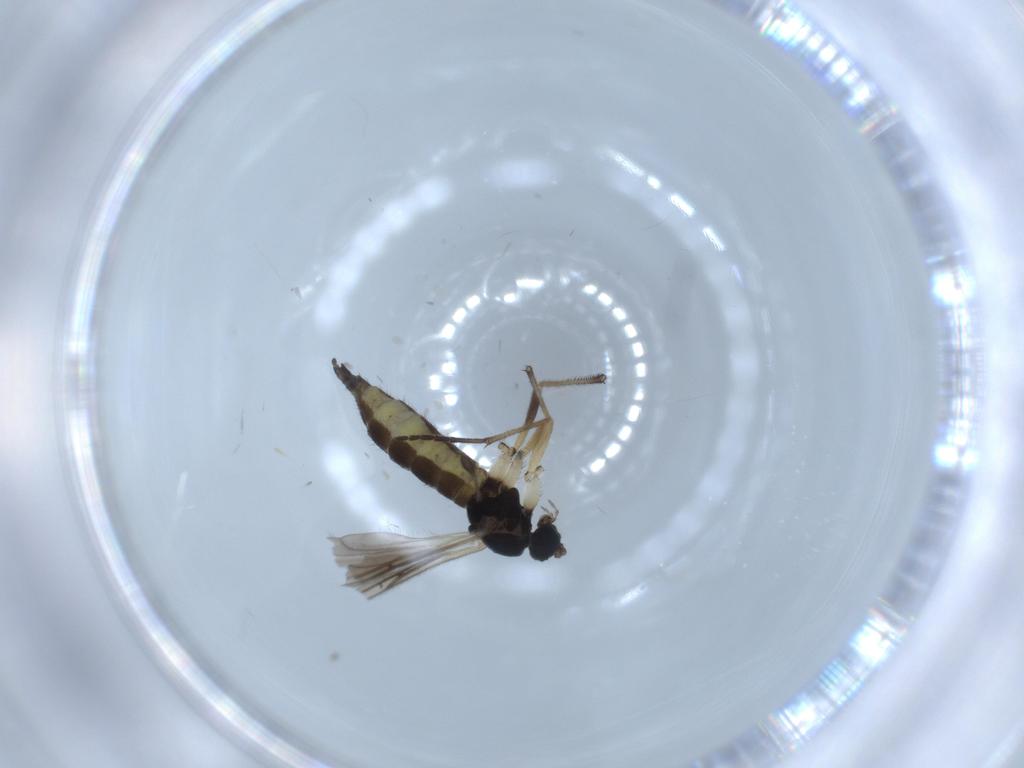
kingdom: Animalia
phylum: Arthropoda
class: Insecta
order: Diptera
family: Sciaridae
